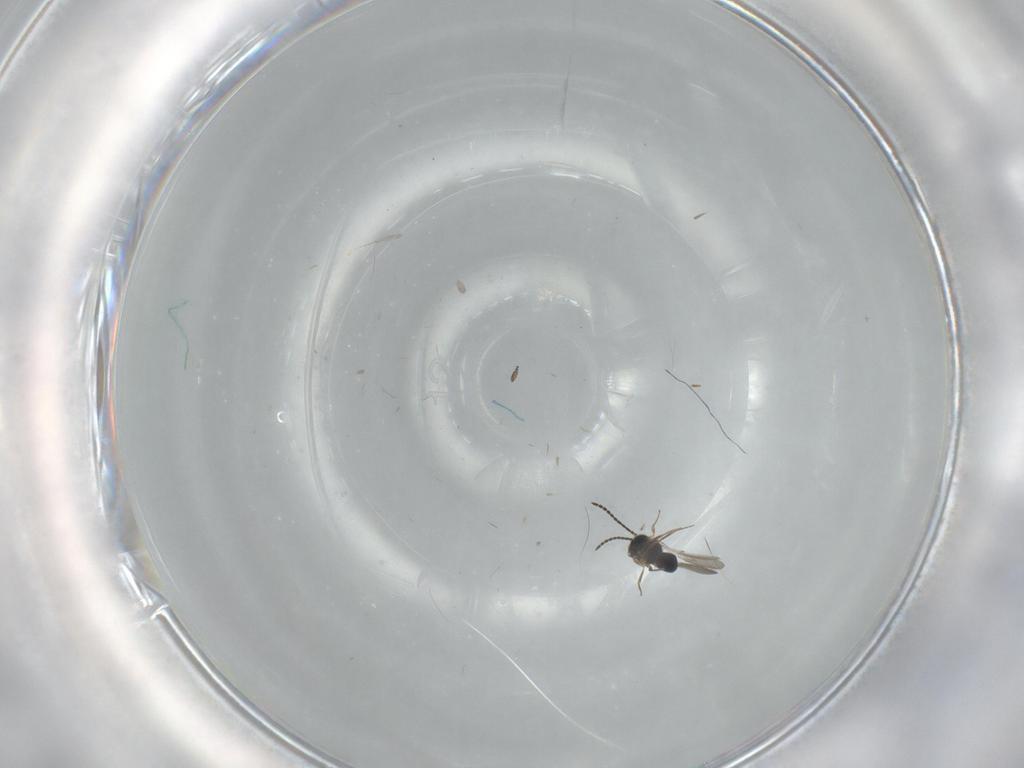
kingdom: Animalia
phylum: Arthropoda
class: Insecta
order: Hymenoptera
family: Scelionidae
